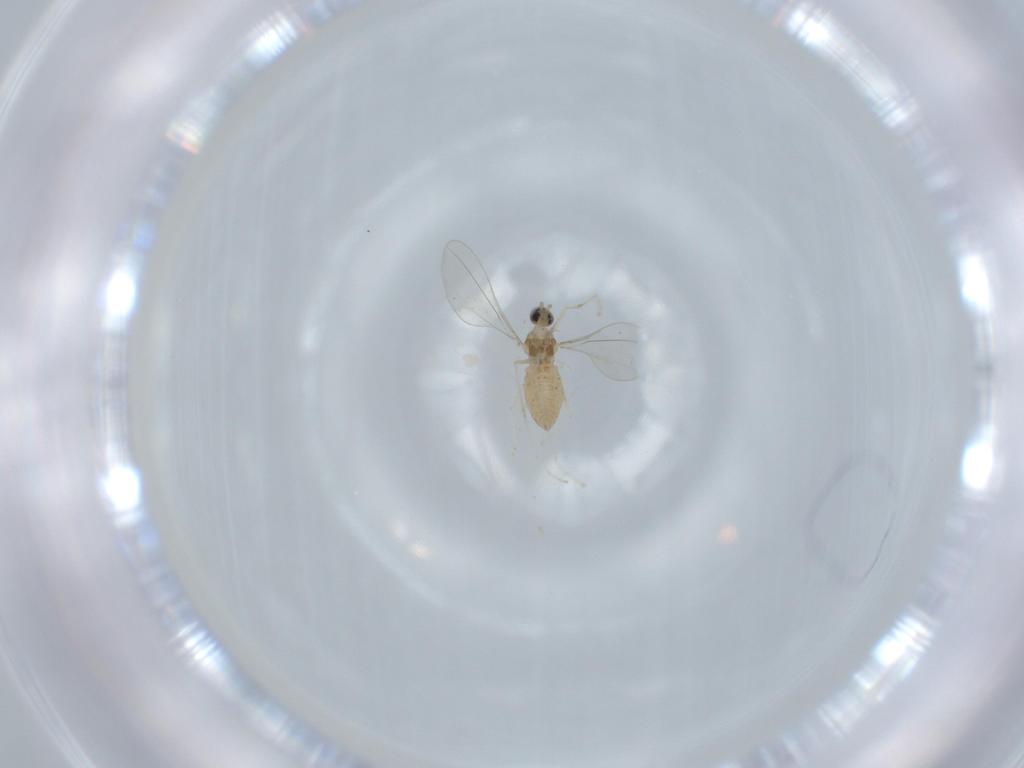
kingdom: Animalia
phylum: Arthropoda
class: Insecta
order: Diptera
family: Cecidomyiidae
